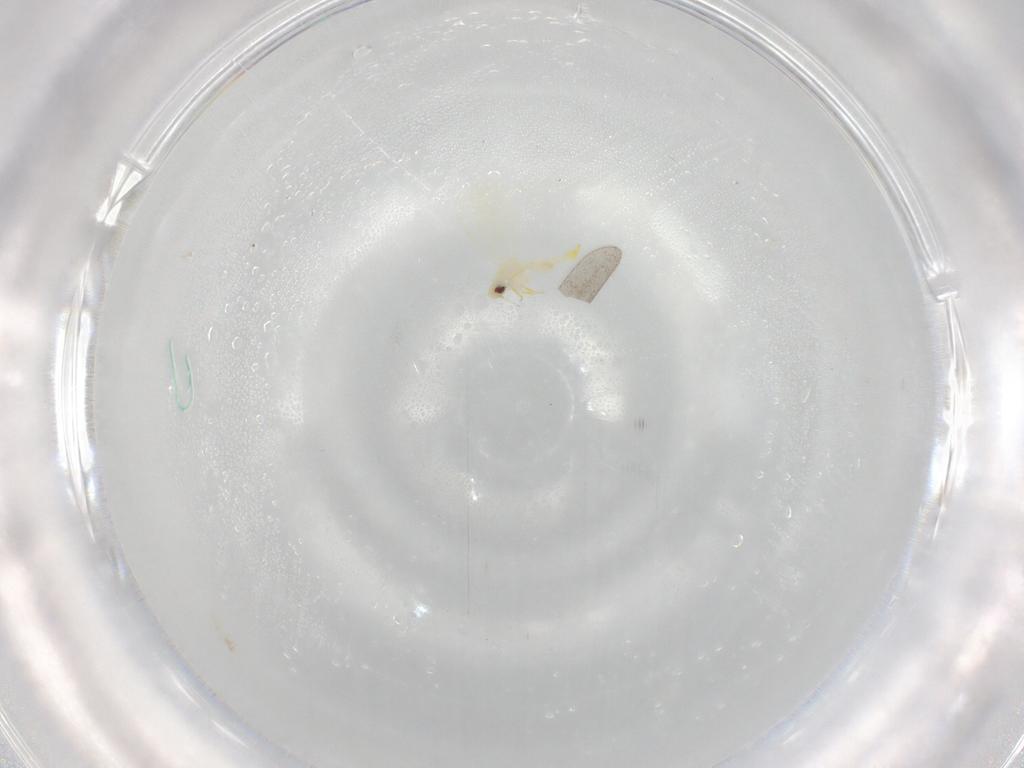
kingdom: Animalia
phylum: Arthropoda
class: Insecta
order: Hemiptera
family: Aleyrodidae
